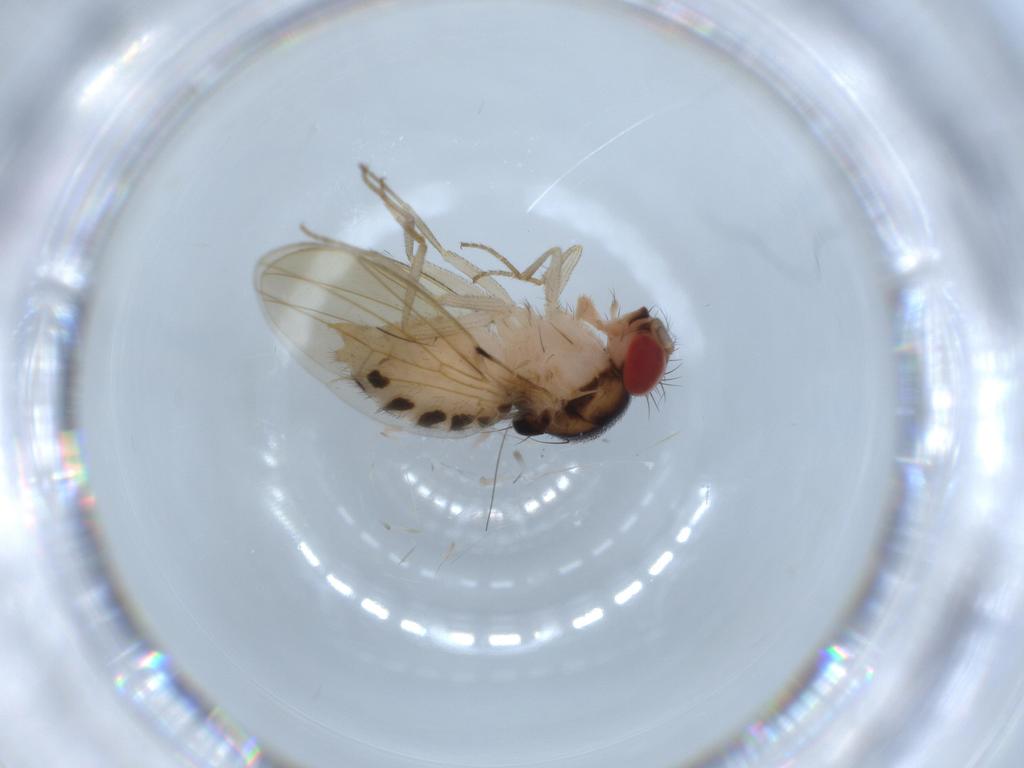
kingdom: Animalia
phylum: Arthropoda
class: Insecta
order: Diptera
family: Drosophilidae
